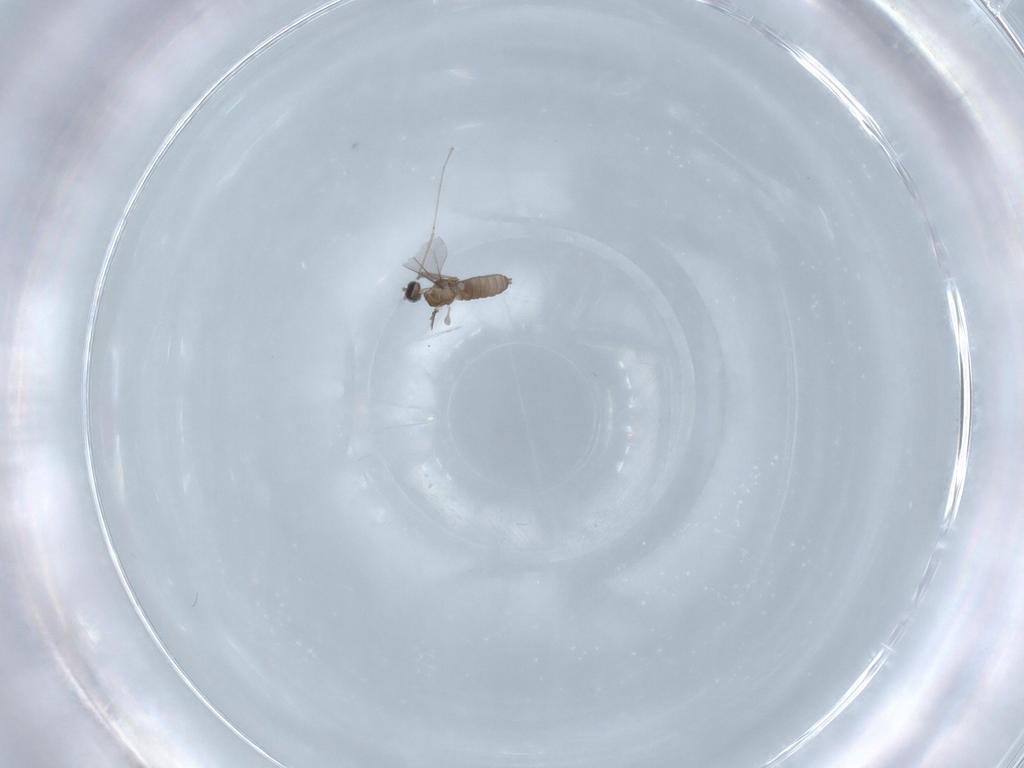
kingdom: Animalia
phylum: Arthropoda
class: Insecta
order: Diptera
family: Cecidomyiidae
